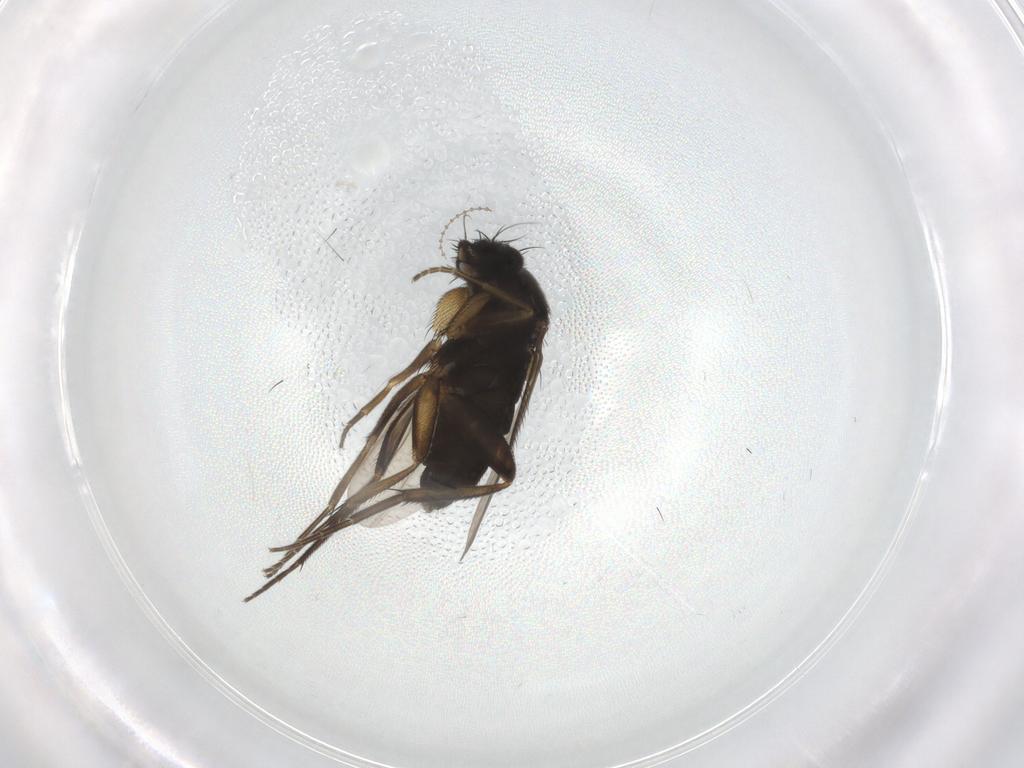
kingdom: Animalia
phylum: Arthropoda
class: Insecta
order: Diptera
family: Phoridae
